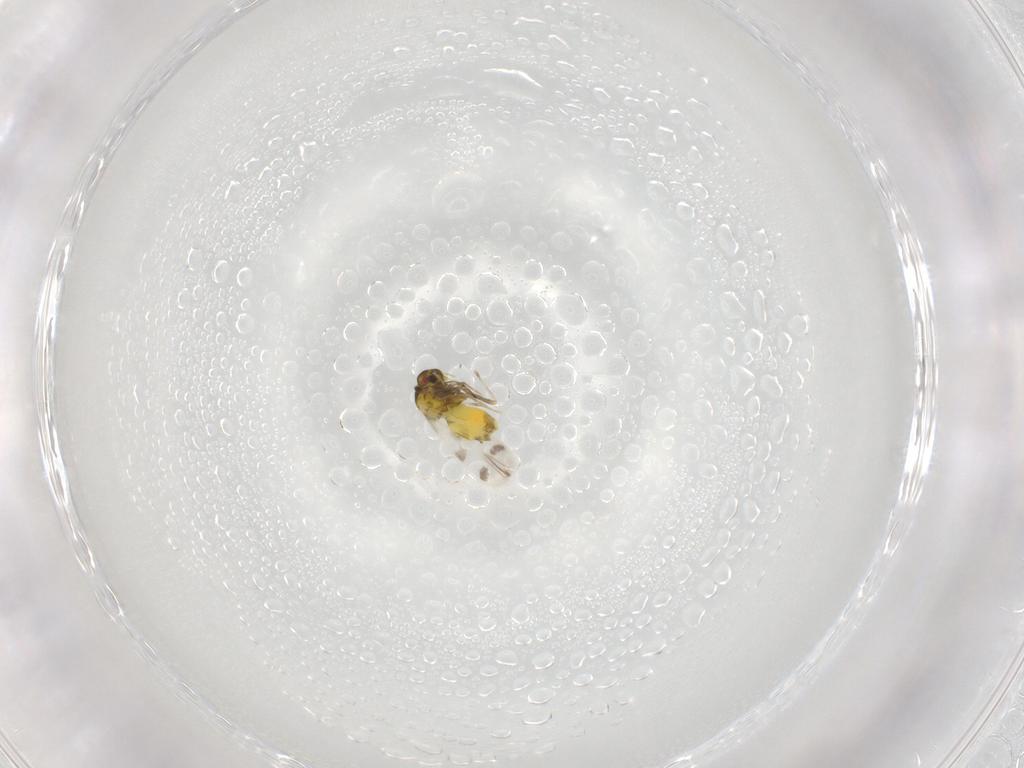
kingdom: Animalia
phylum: Arthropoda
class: Insecta
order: Hemiptera
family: Aleyrodidae
